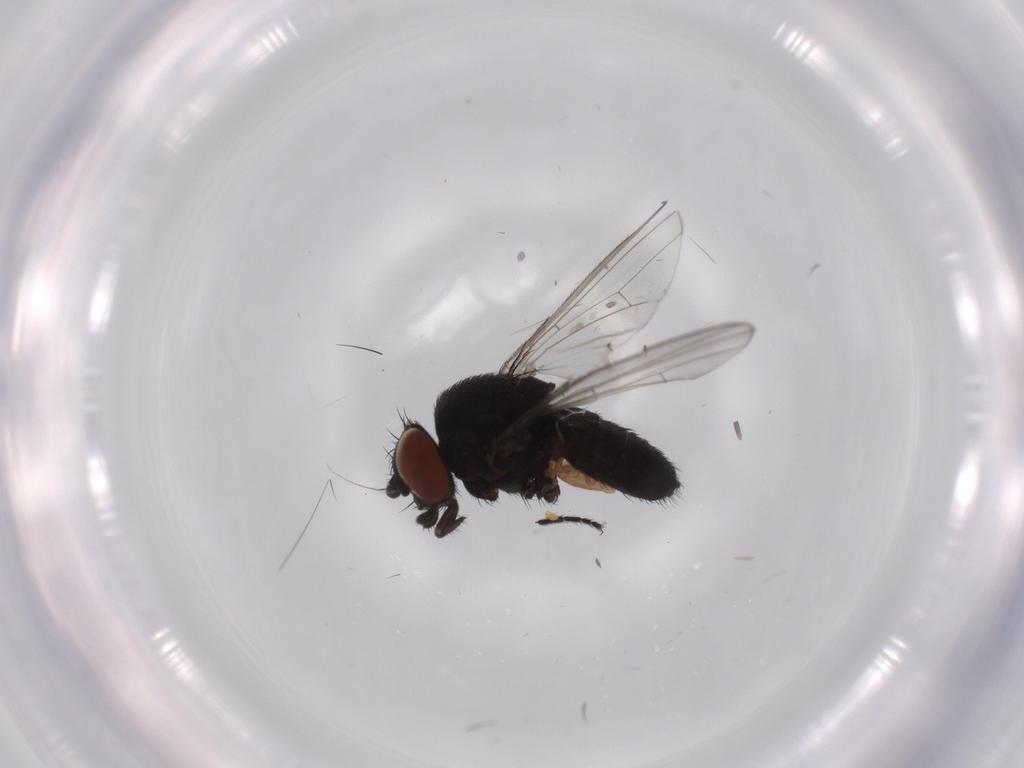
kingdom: Animalia
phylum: Arthropoda
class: Insecta
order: Diptera
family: Milichiidae
